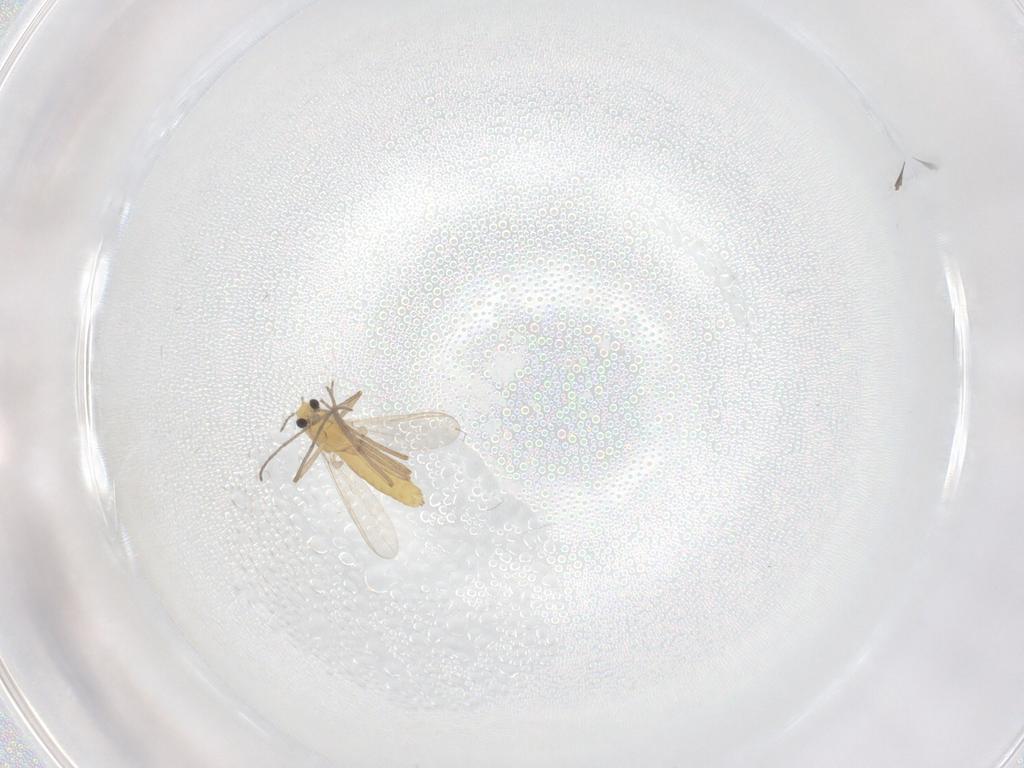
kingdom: Animalia
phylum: Arthropoda
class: Insecta
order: Diptera
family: Chironomidae
